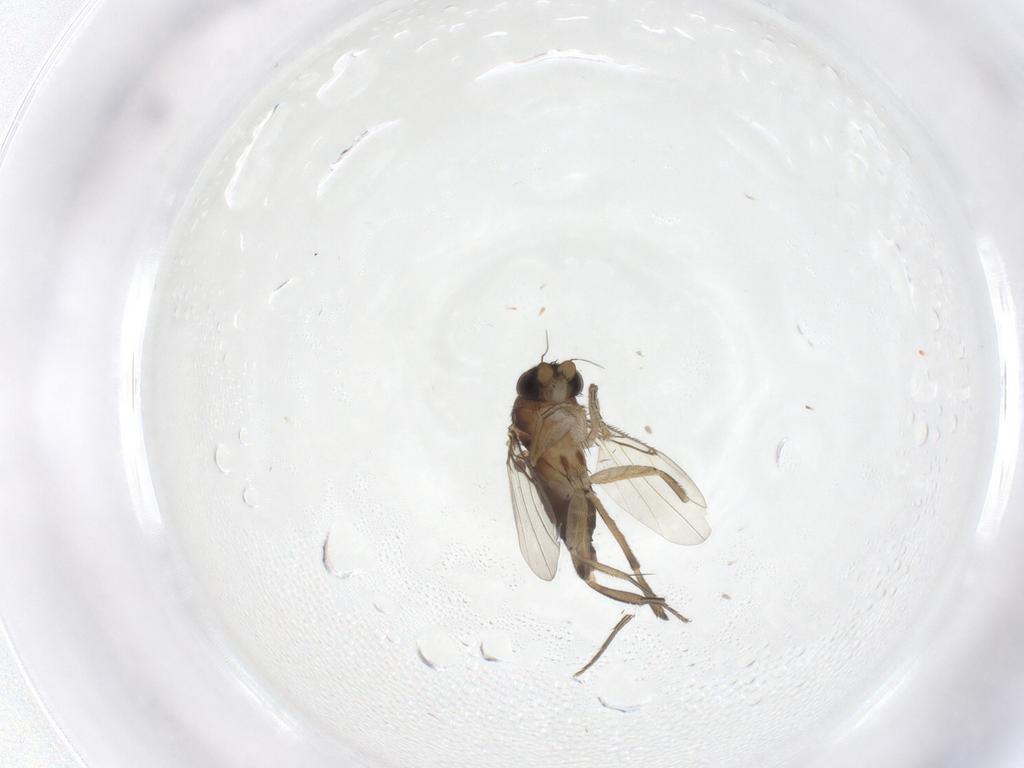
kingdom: Animalia
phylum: Arthropoda
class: Insecta
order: Diptera
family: Phoridae
